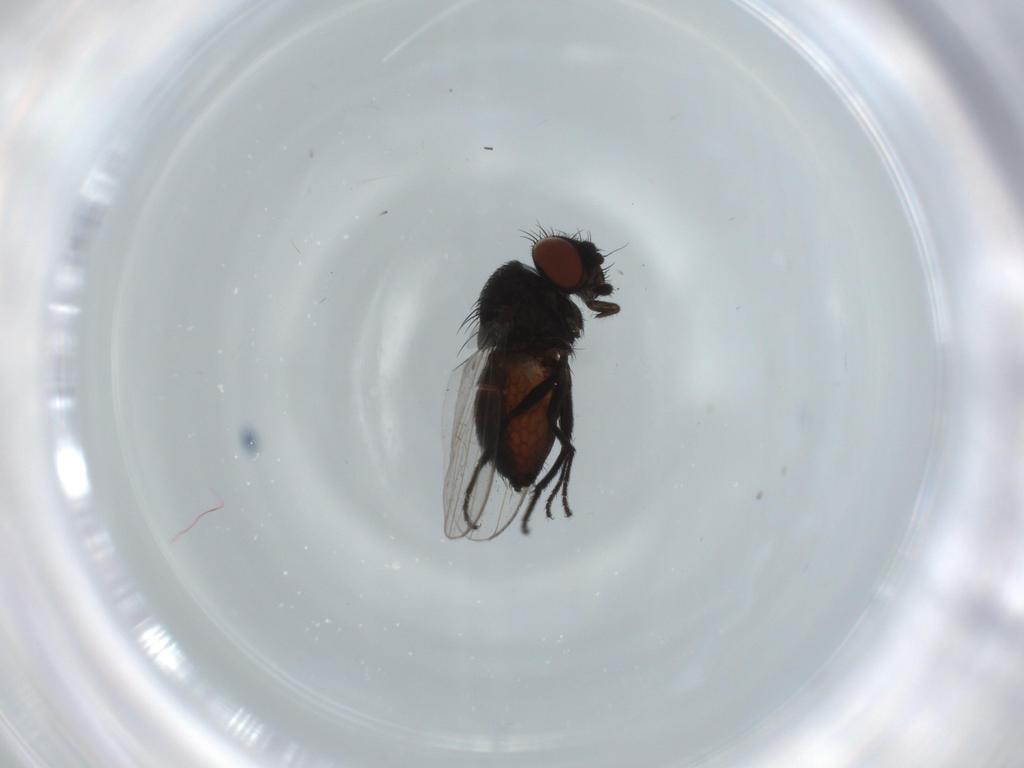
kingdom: Animalia
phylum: Arthropoda
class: Insecta
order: Diptera
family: Milichiidae
